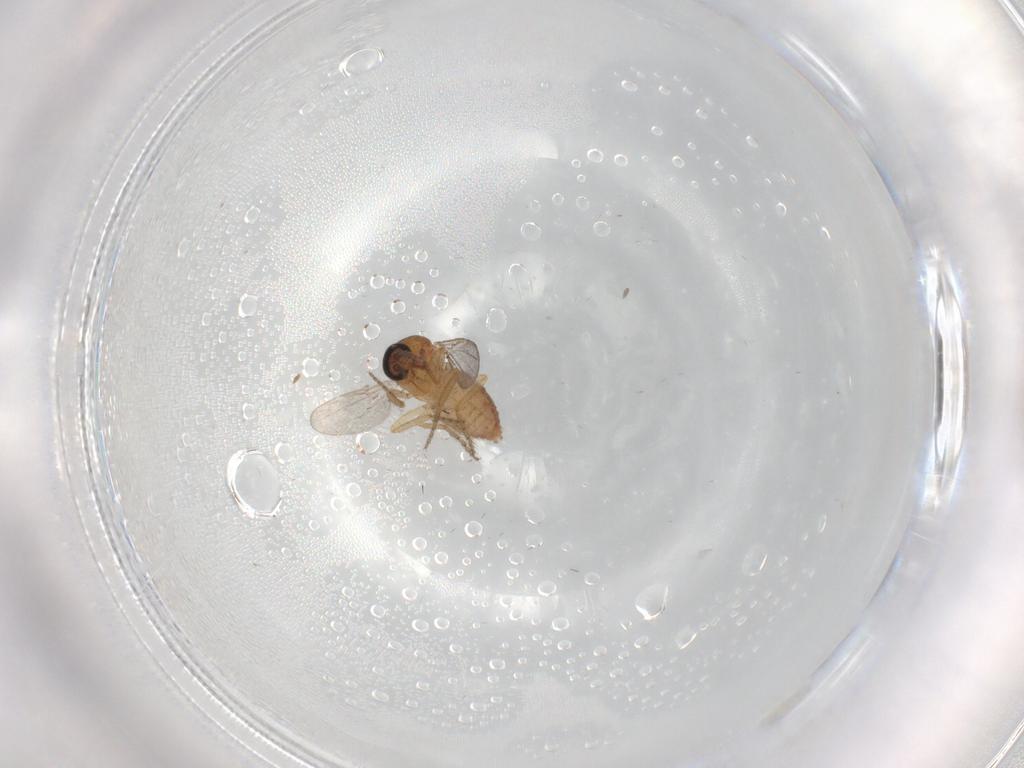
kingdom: Animalia
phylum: Arthropoda
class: Insecta
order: Diptera
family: Ceratopogonidae
